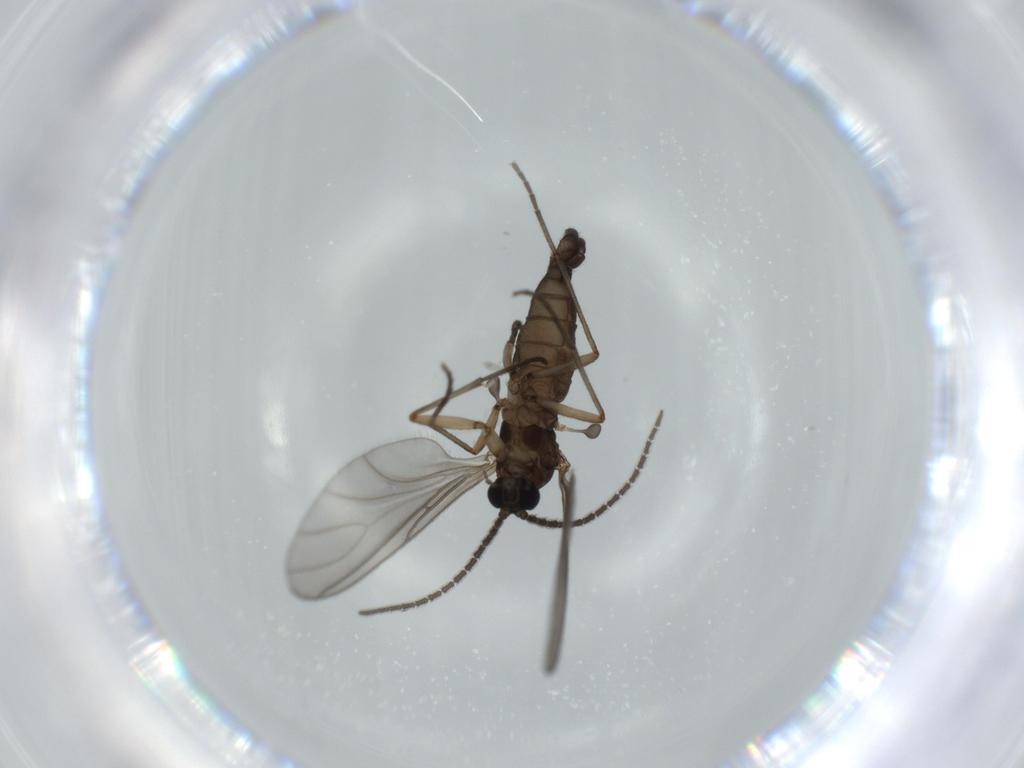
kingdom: Animalia
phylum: Arthropoda
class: Insecta
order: Diptera
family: Sciaridae
